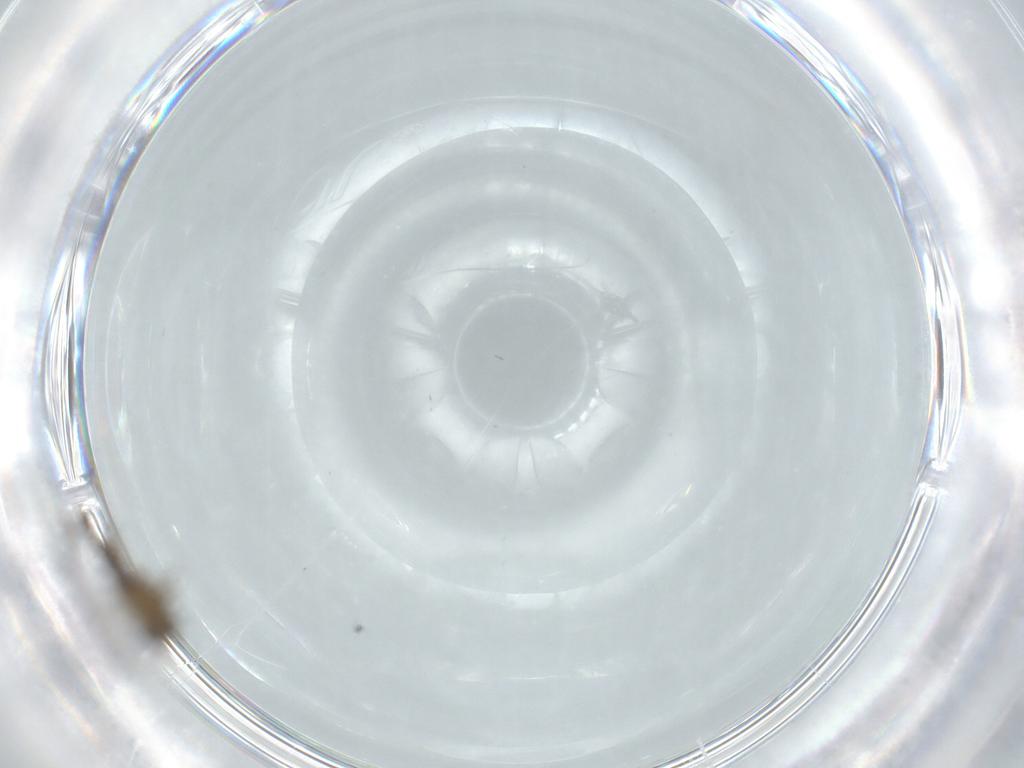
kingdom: Animalia
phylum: Arthropoda
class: Insecta
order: Diptera
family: Chironomidae
